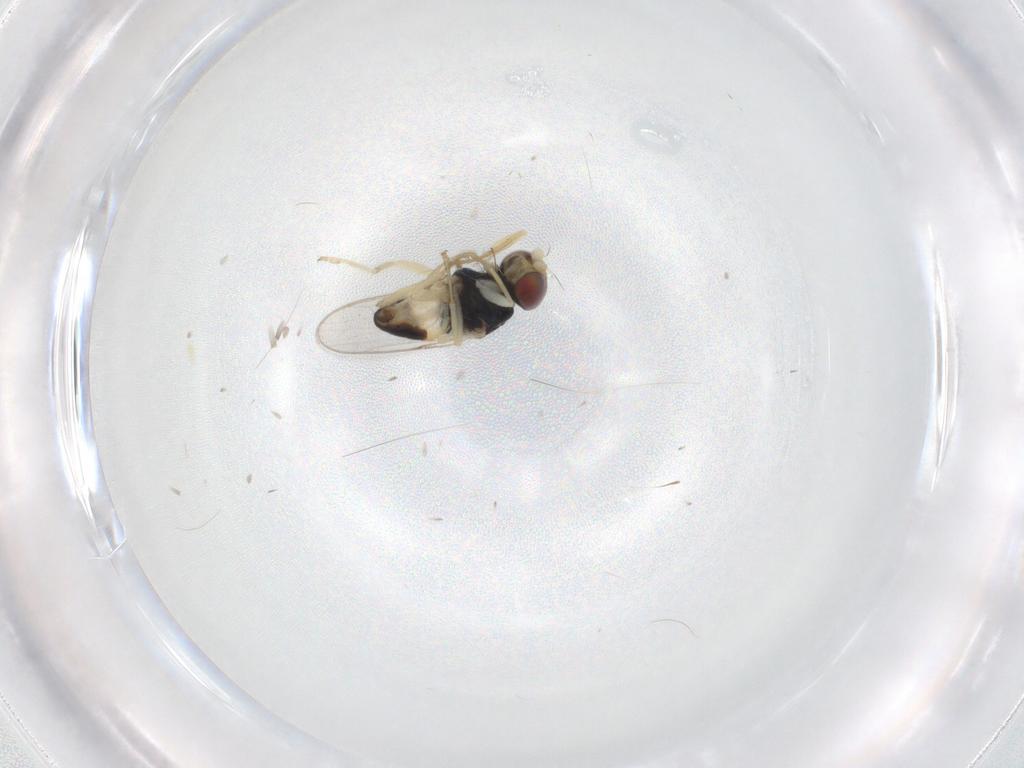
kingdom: Animalia
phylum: Arthropoda
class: Insecta
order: Diptera
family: Chloropidae
